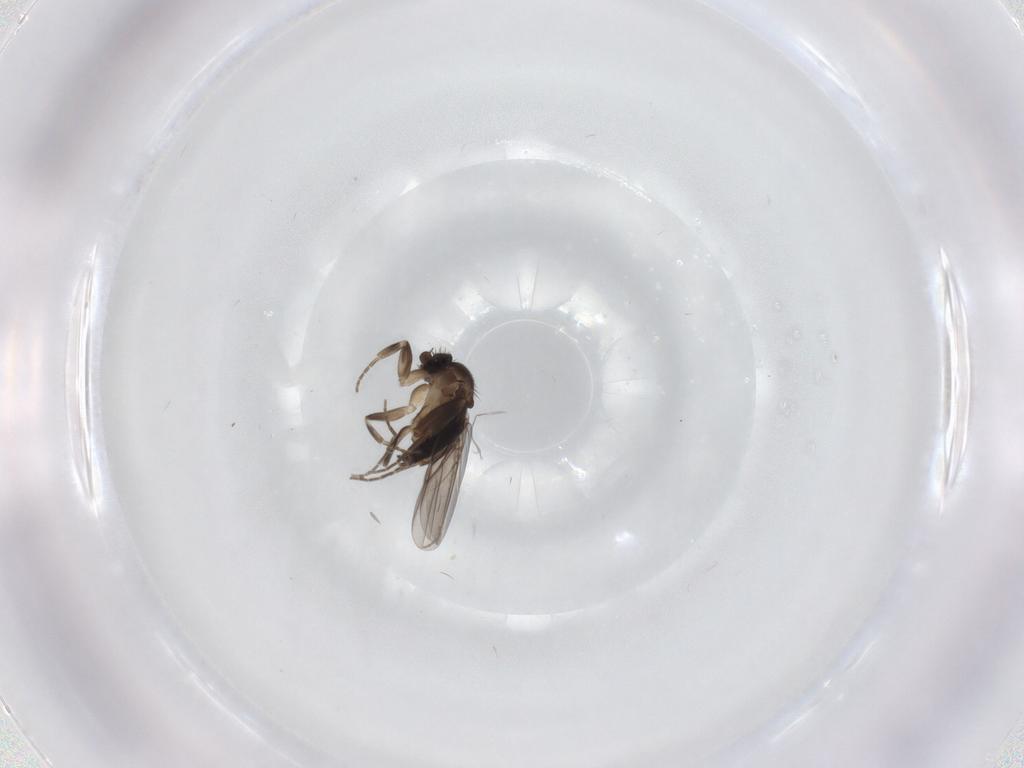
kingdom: Animalia
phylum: Arthropoda
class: Insecta
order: Diptera
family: Phoridae
